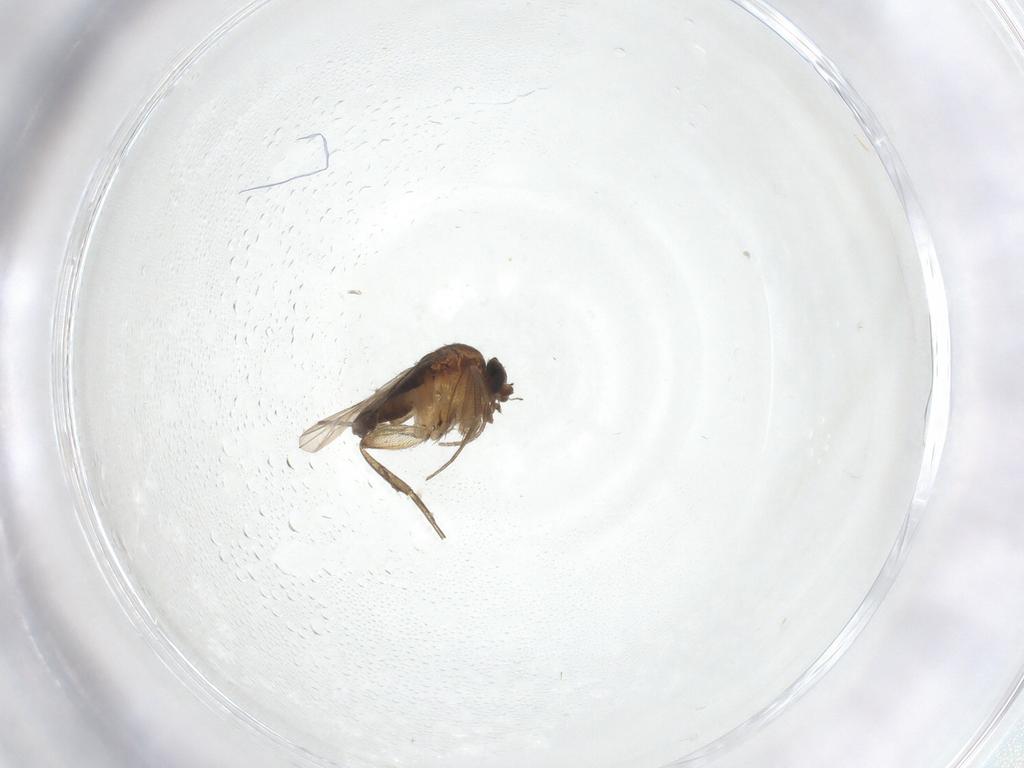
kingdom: Animalia
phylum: Arthropoda
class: Insecta
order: Diptera
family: Phoridae
